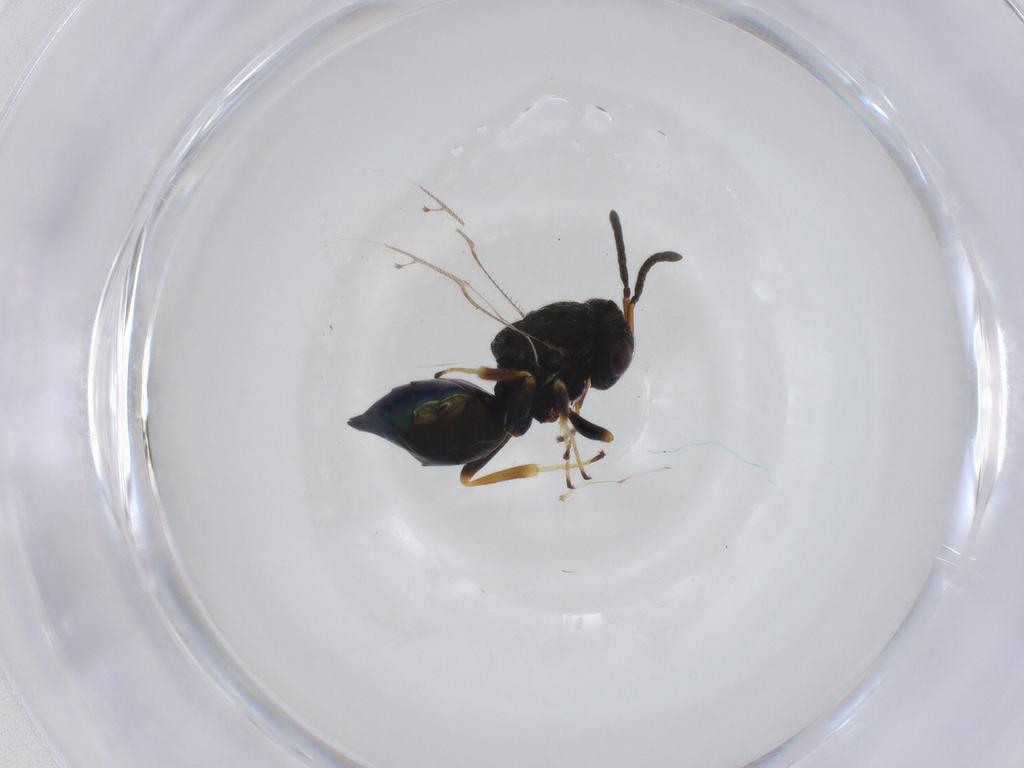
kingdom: Animalia
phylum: Arthropoda
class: Insecta
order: Hymenoptera
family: Pteromalidae
